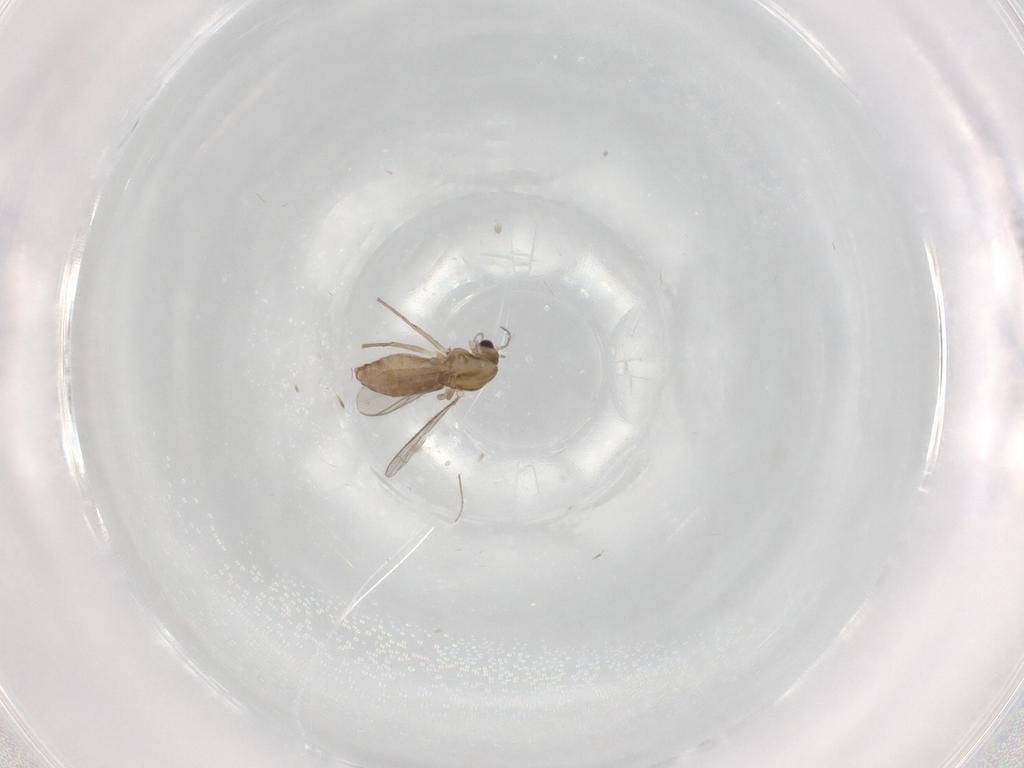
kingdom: Animalia
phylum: Arthropoda
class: Insecta
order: Diptera
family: Chironomidae
